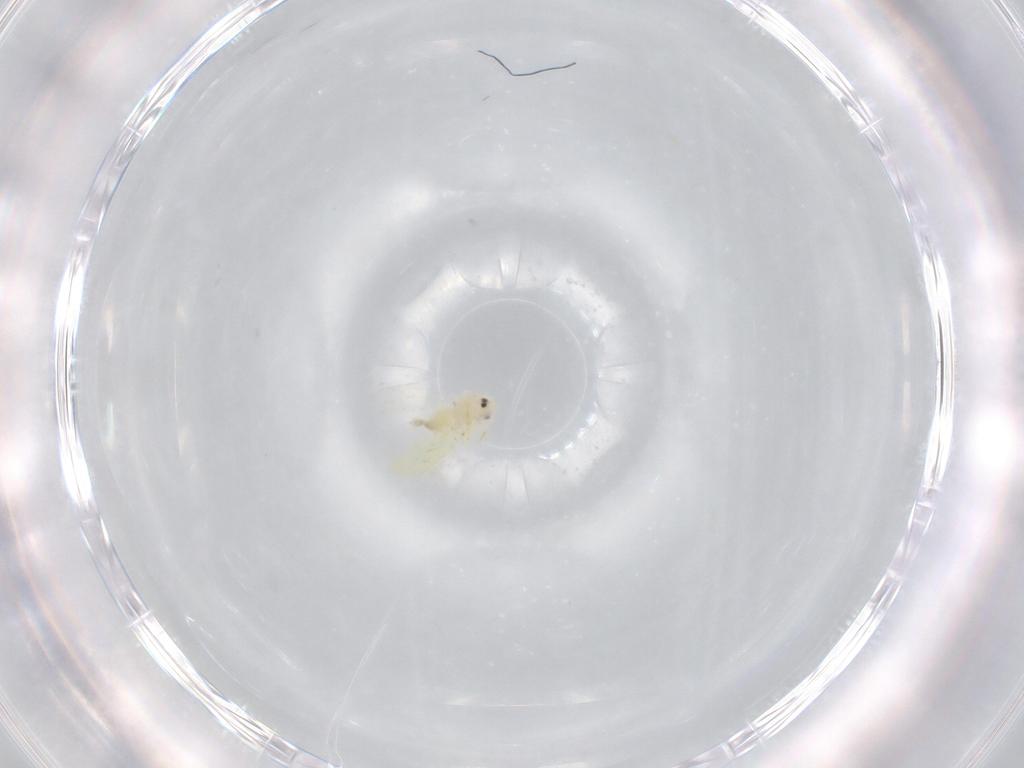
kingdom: Animalia
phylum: Arthropoda
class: Insecta
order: Hemiptera
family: Aleyrodidae
